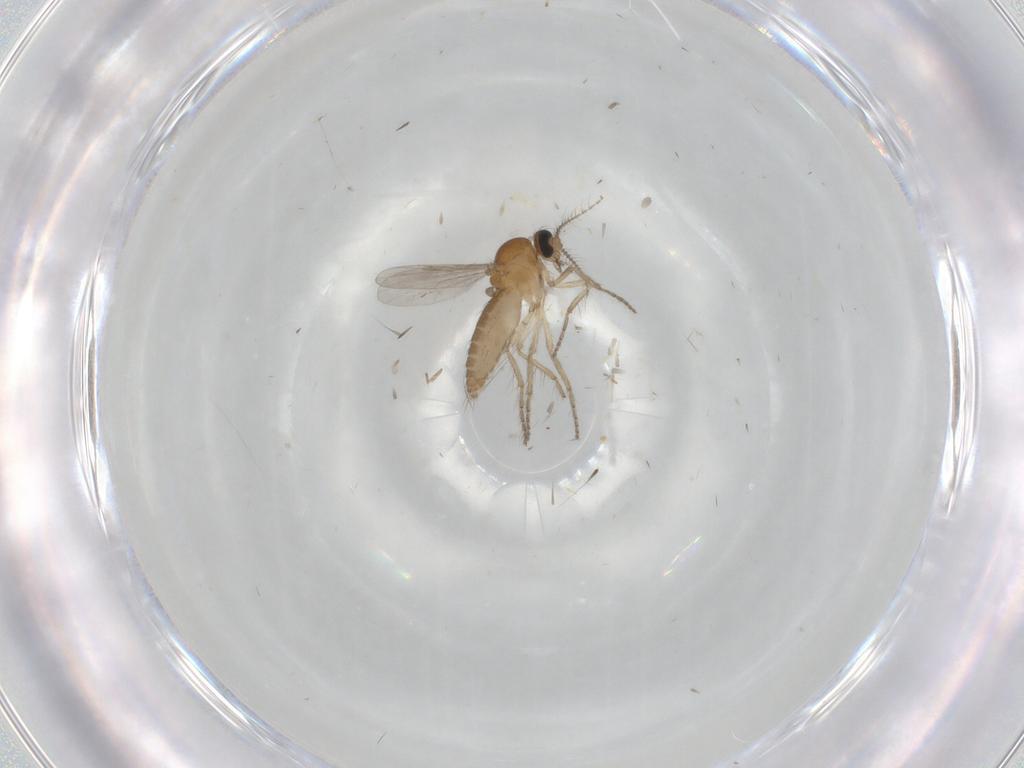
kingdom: Animalia
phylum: Arthropoda
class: Insecta
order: Diptera
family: Ceratopogonidae
